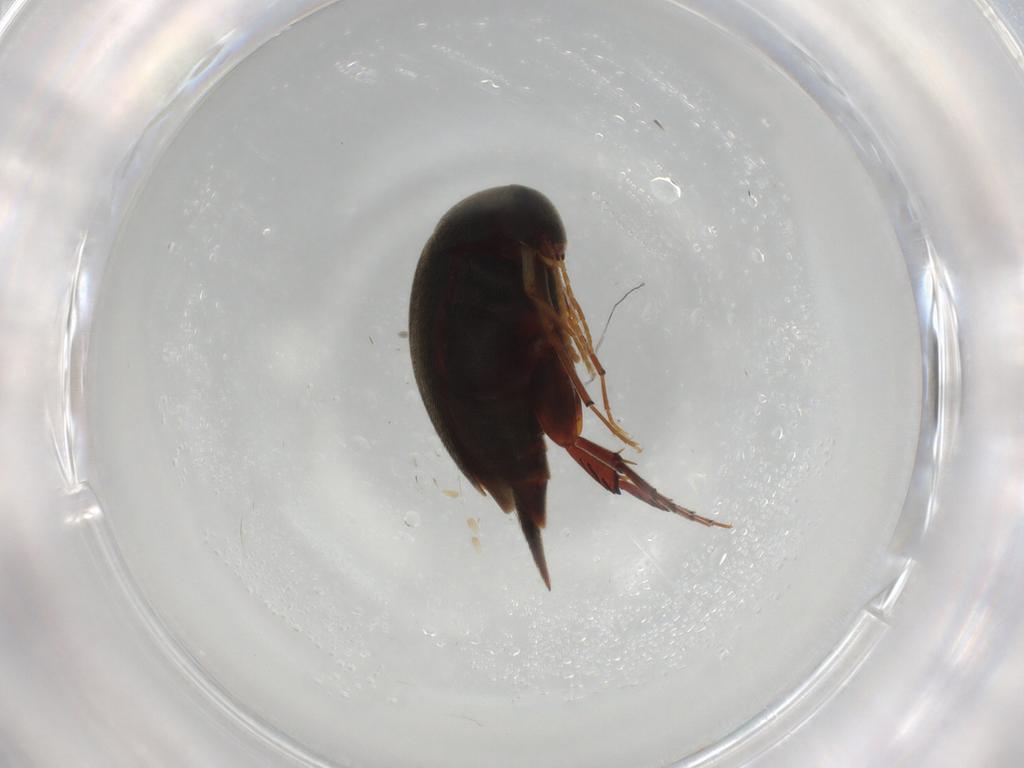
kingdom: Animalia
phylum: Arthropoda
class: Insecta
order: Coleoptera
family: Mordellidae
